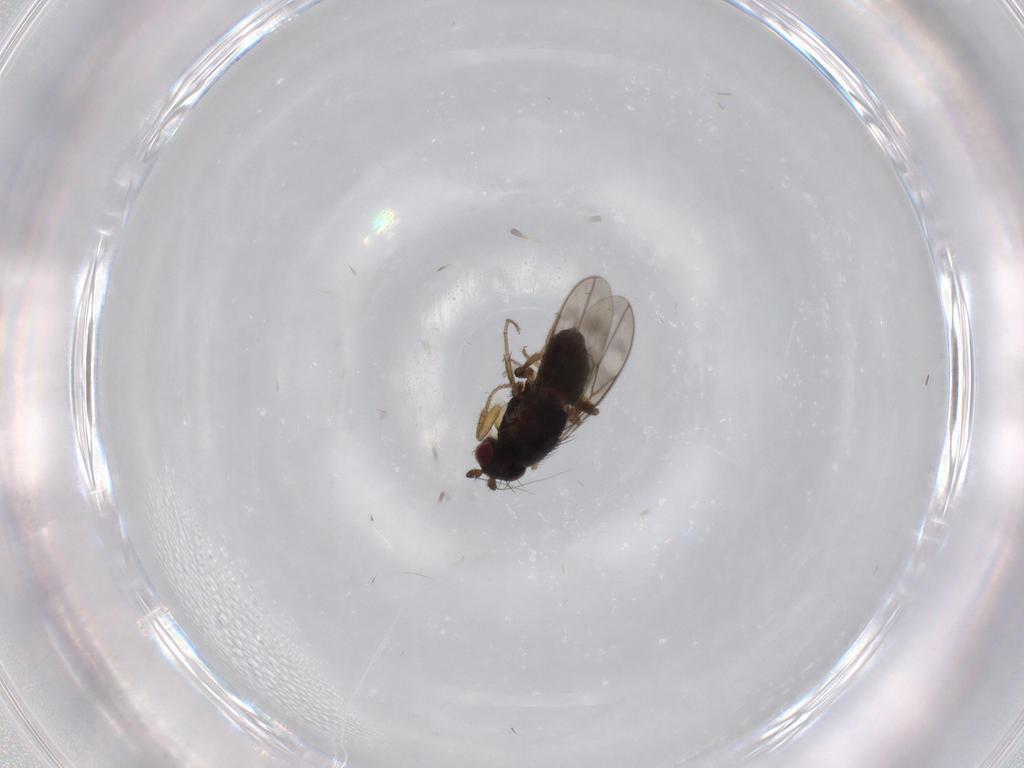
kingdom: Animalia
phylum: Arthropoda
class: Insecta
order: Diptera
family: Sphaeroceridae
